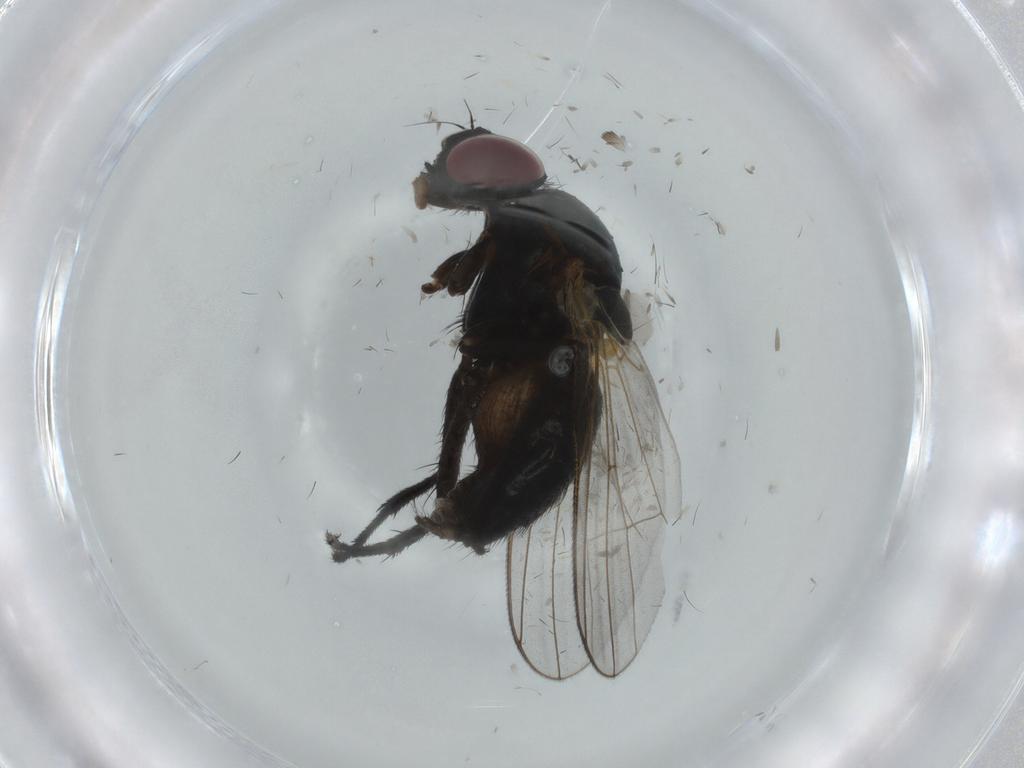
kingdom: Animalia
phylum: Arthropoda
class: Insecta
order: Diptera
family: Fannia
